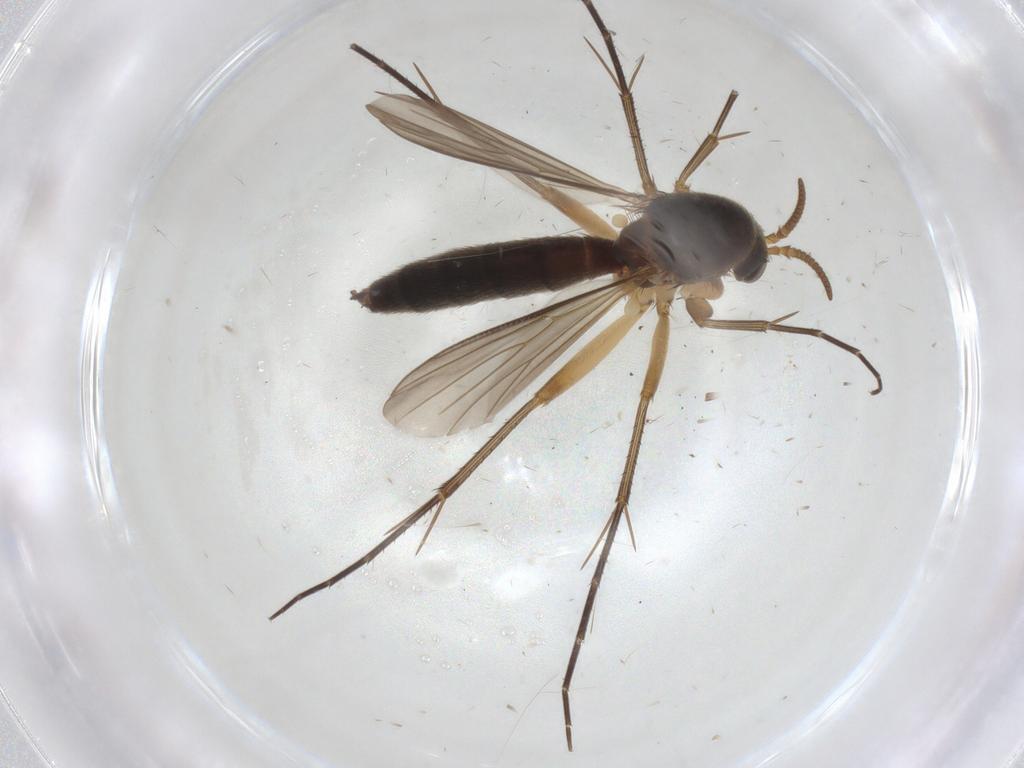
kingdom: Animalia
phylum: Arthropoda
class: Insecta
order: Diptera
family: Mycetophilidae
